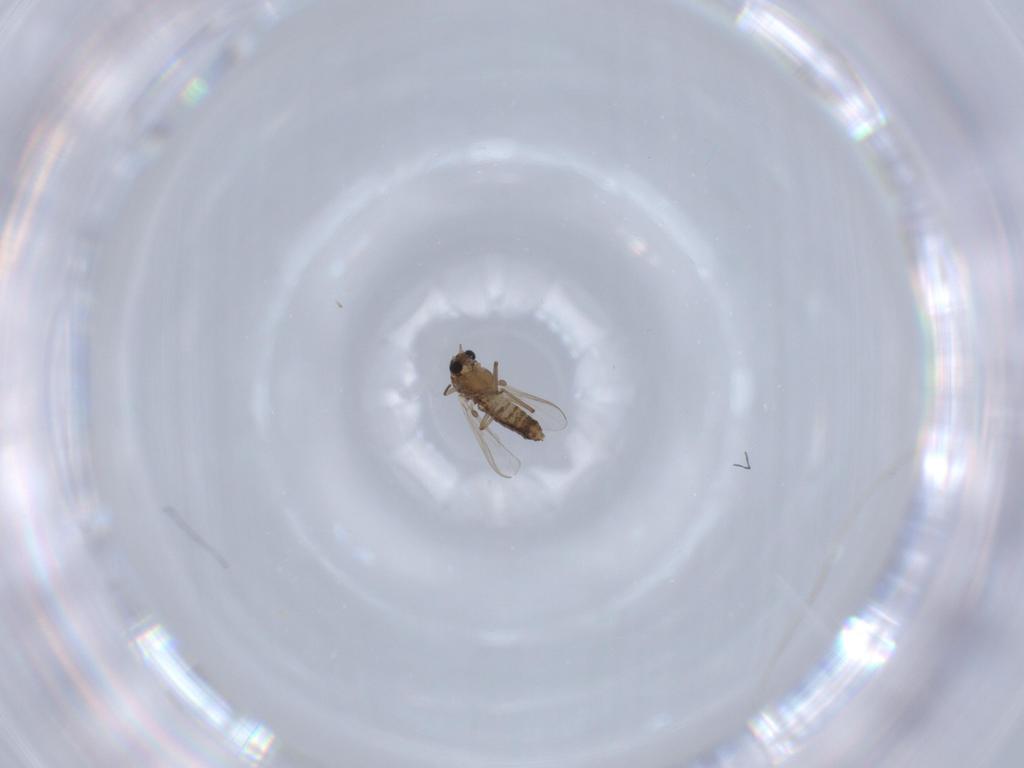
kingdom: Animalia
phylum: Arthropoda
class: Insecta
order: Diptera
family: Chironomidae
